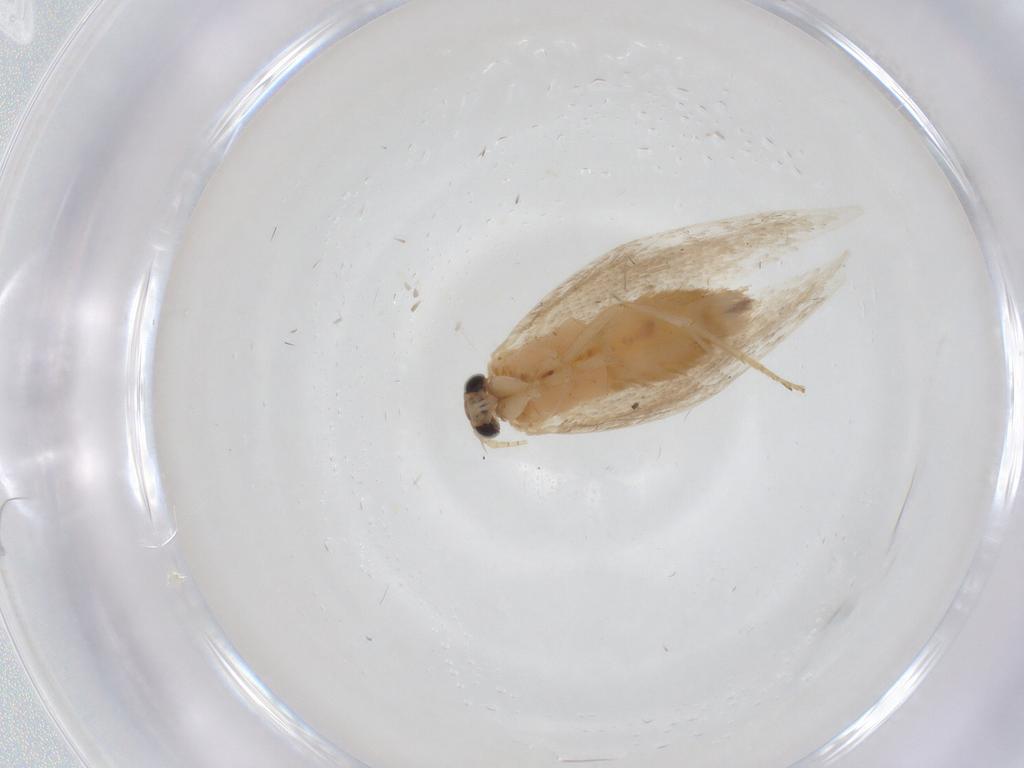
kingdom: Animalia
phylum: Arthropoda
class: Insecta
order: Lepidoptera
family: Tineidae
